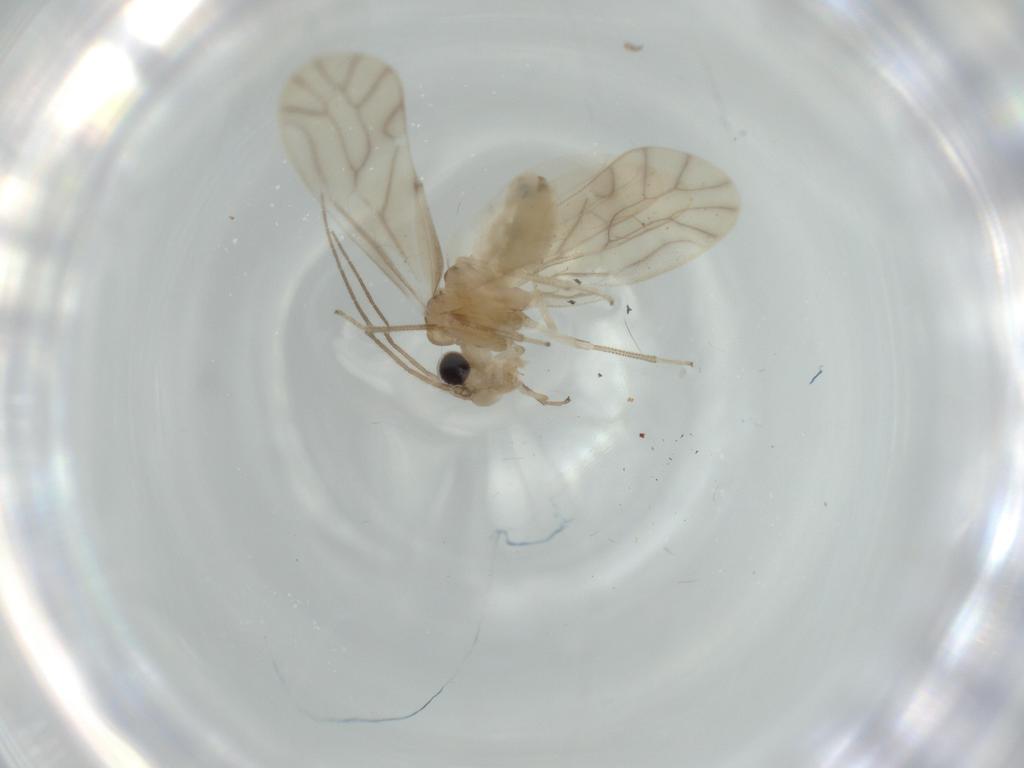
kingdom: Animalia
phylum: Arthropoda
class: Insecta
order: Psocodea
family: Caeciliusidae
